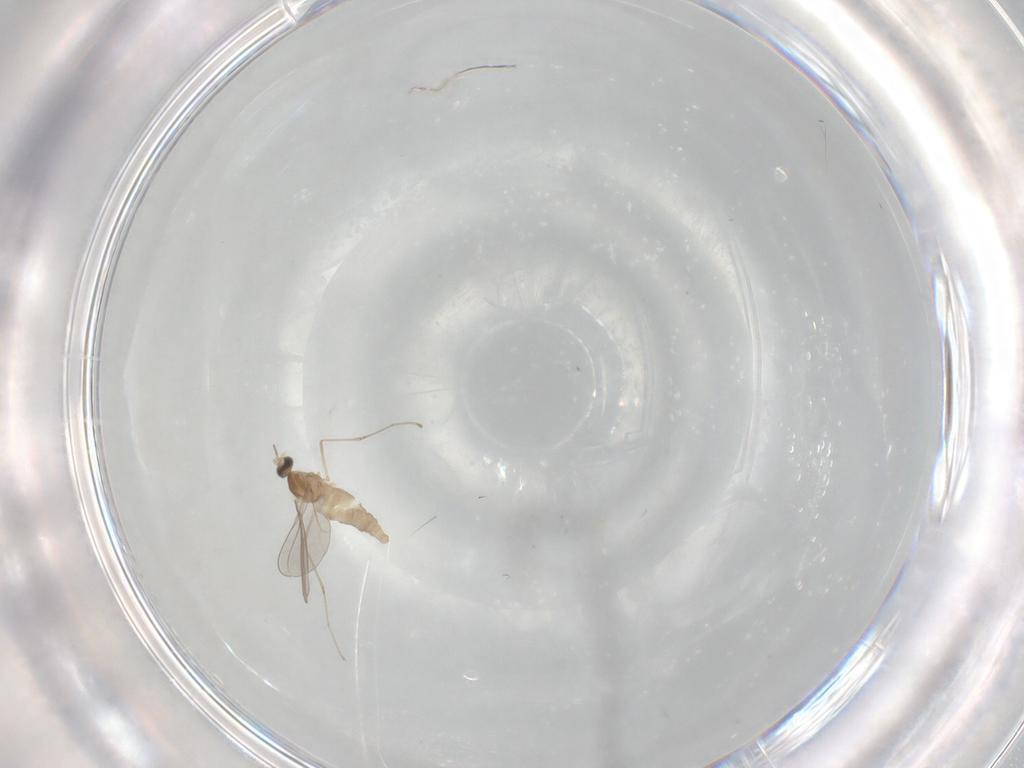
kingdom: Animalia
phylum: Arthropoda
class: Insecta
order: Diptera
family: Cecidomyiidae
